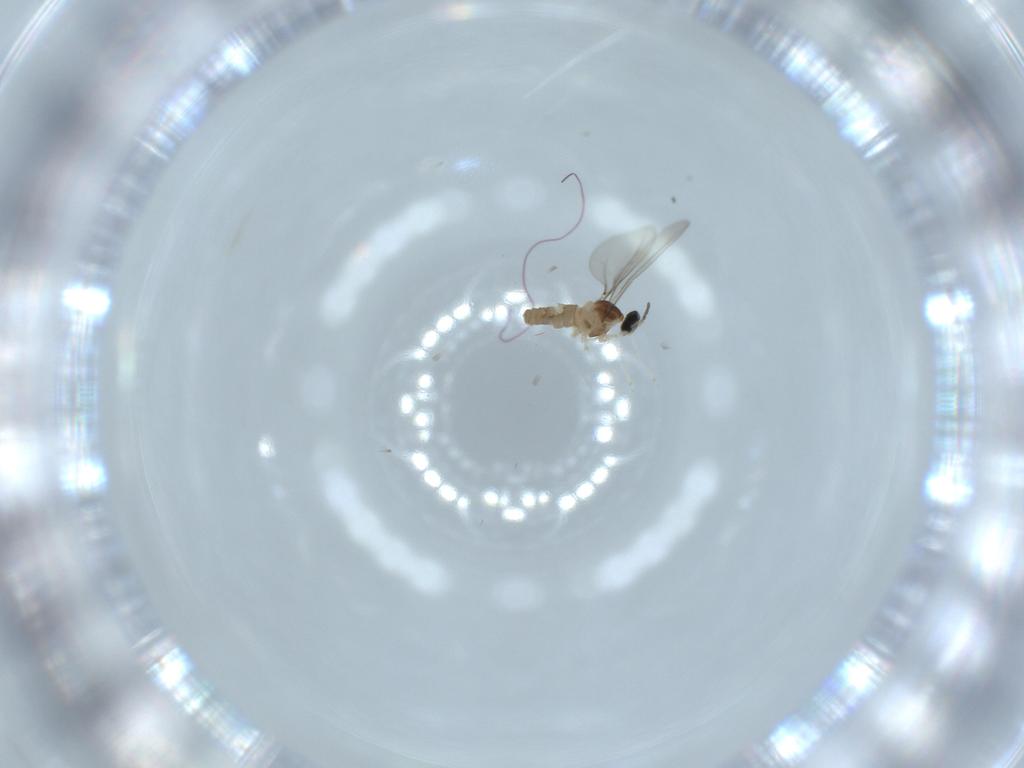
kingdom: Animalia
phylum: Arthropoda
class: Insecta
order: Diptera
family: Cecidomyiidae
